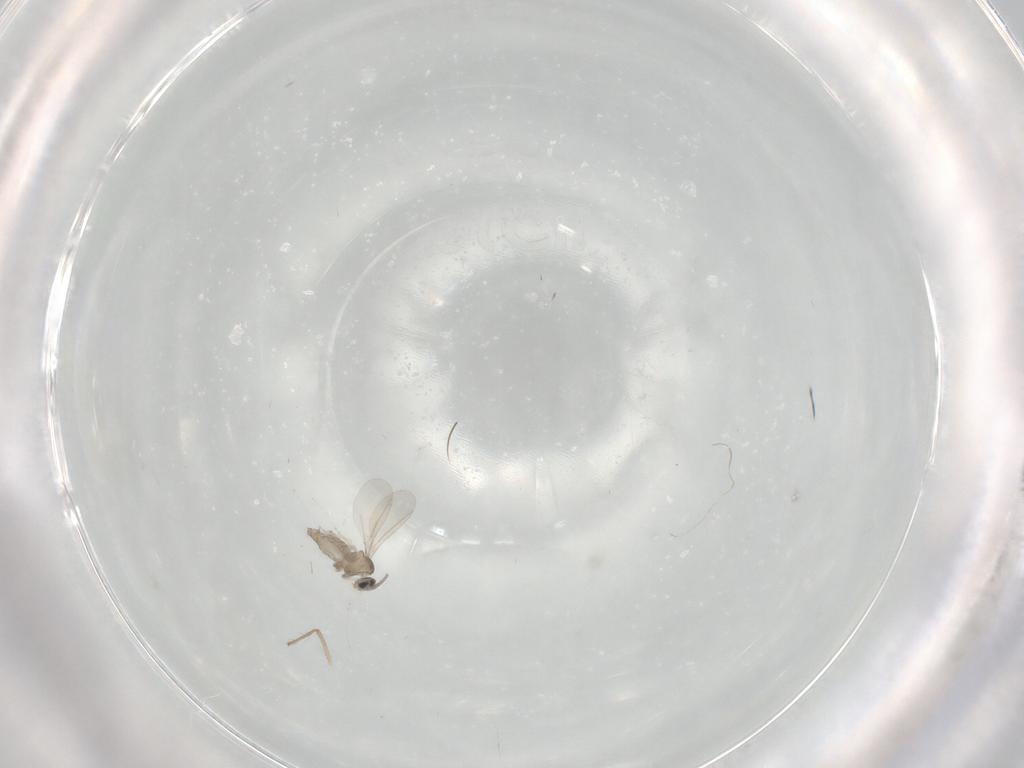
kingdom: Animalia
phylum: Arthropoda
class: Insecta
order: Diptera
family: Cecidomyiidae
